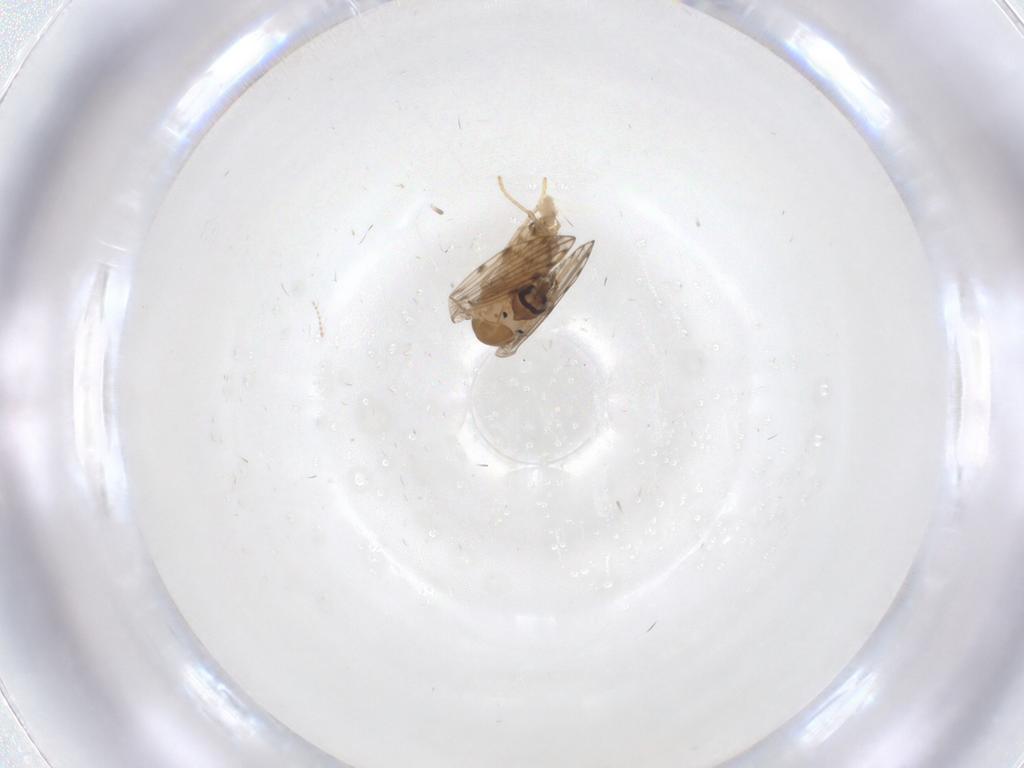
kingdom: Animalia
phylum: Arthropoda
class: Insecta
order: Diptera
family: Psychodidae
